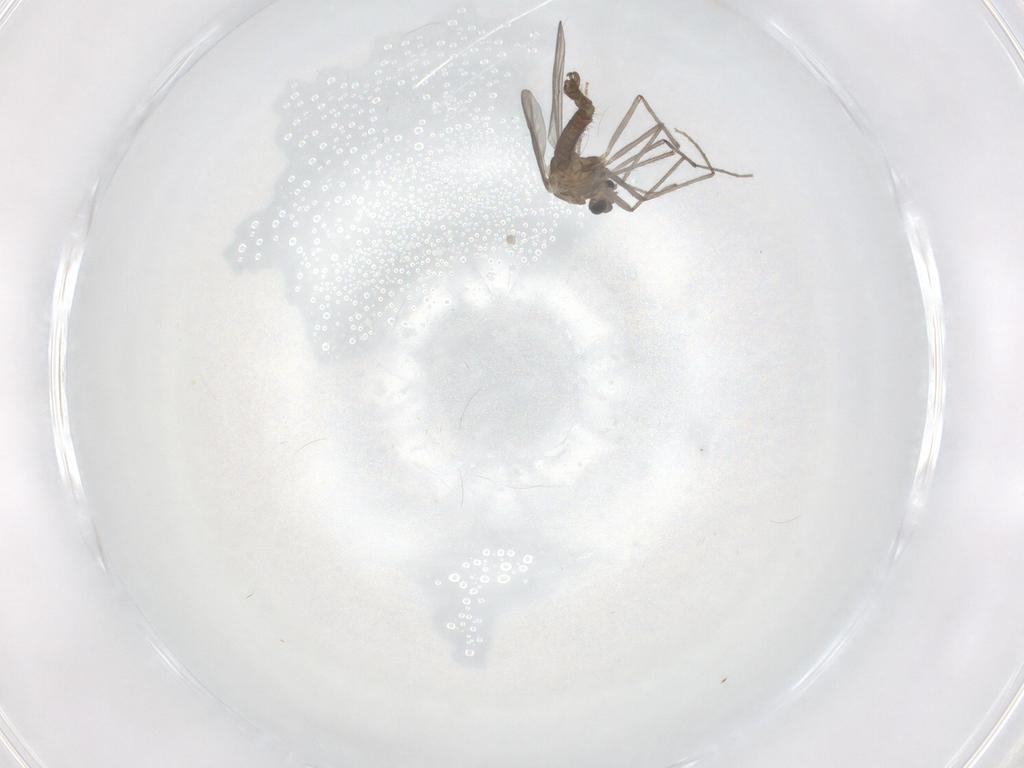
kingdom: Animalia
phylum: Arthropoda
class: Insecta
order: Diptera
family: Chironomidae
